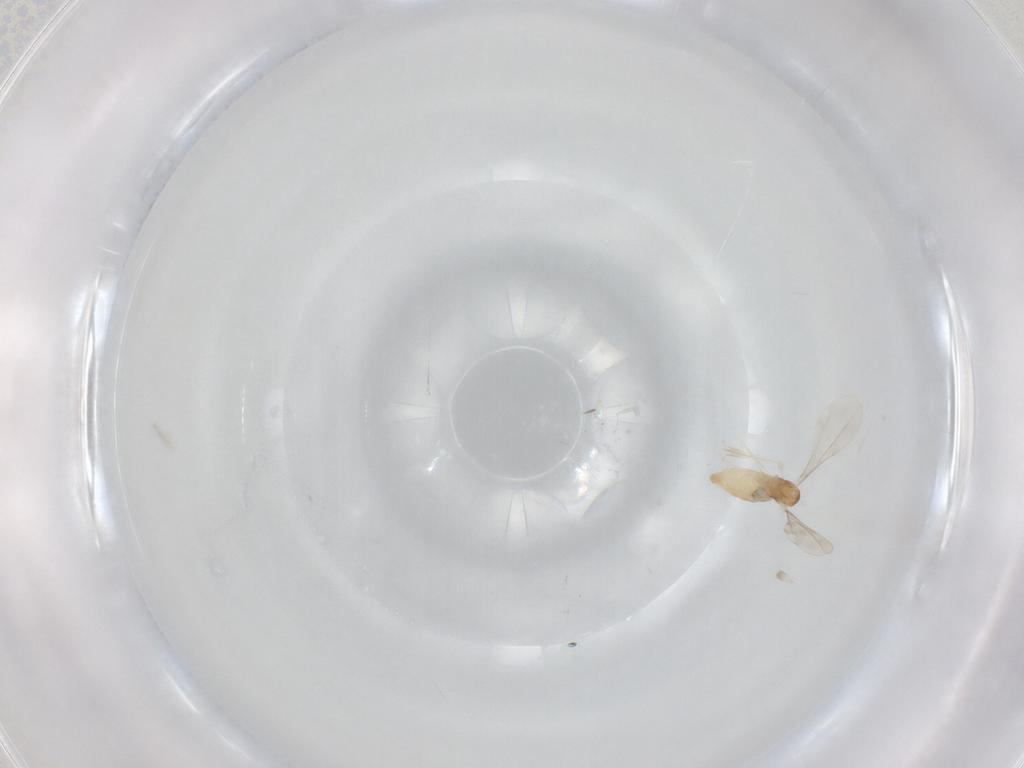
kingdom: Animalia
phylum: Arthropoda
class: Insecta
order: Diptera
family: Cecidomyiidae
